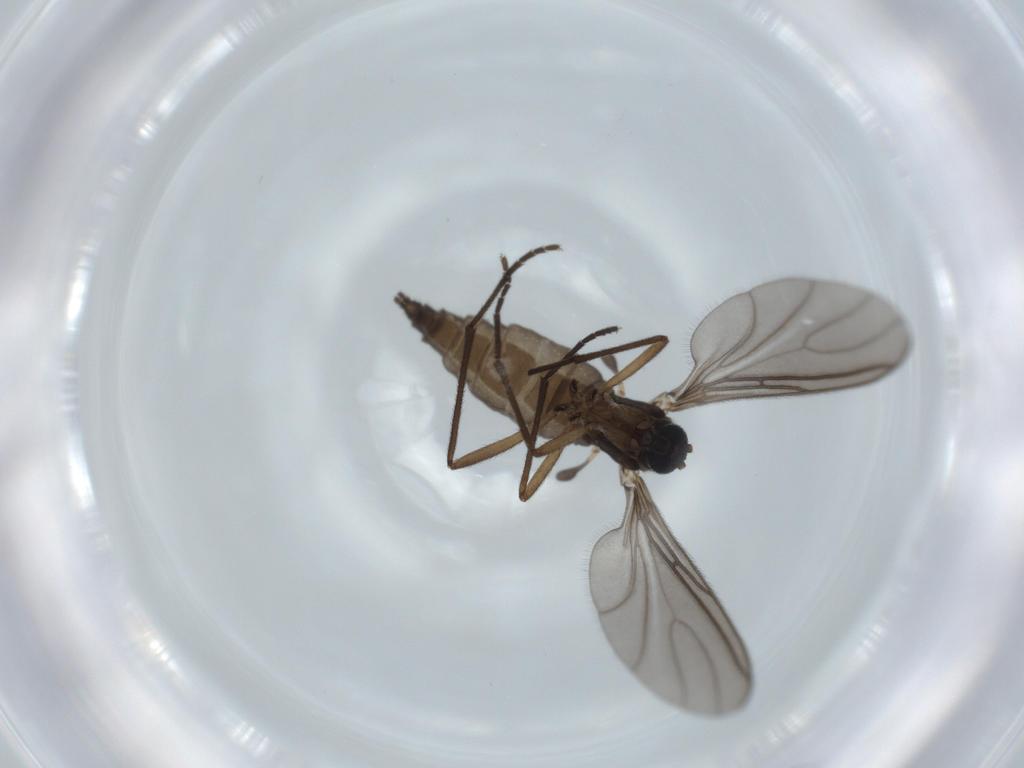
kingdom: Animalia
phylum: Arthropoda
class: Insecta
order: Diptera
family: Sciaridae
